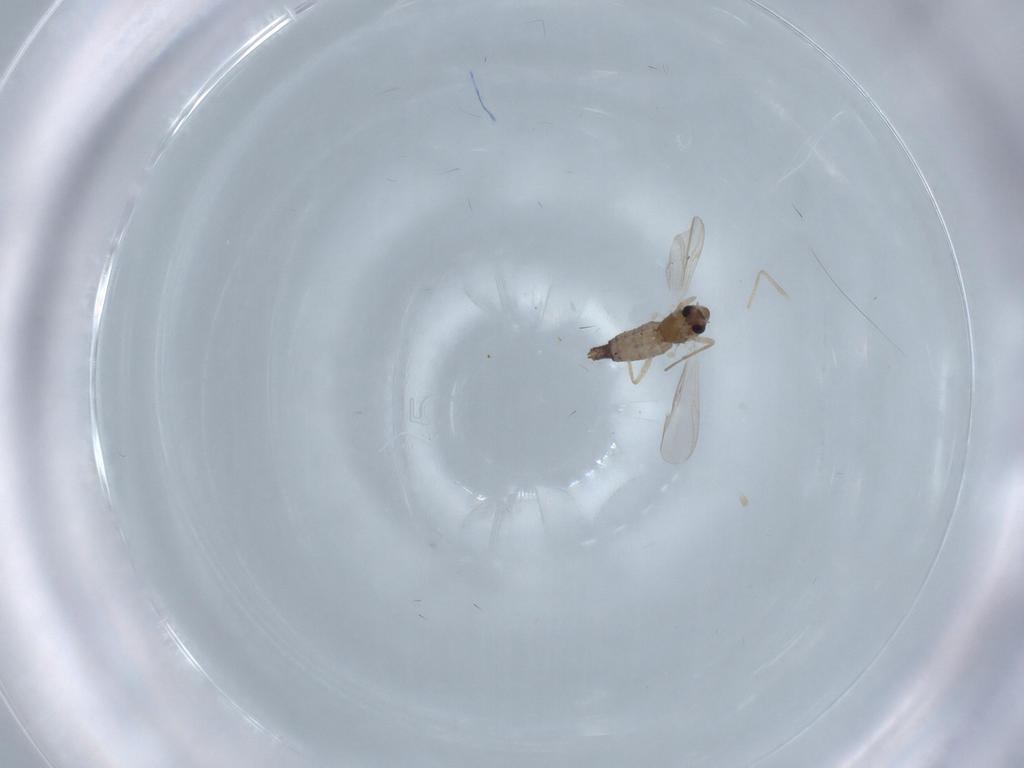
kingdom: Animalia
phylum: Arthropoda
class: Insecta
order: Diptera
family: Chironomidae
